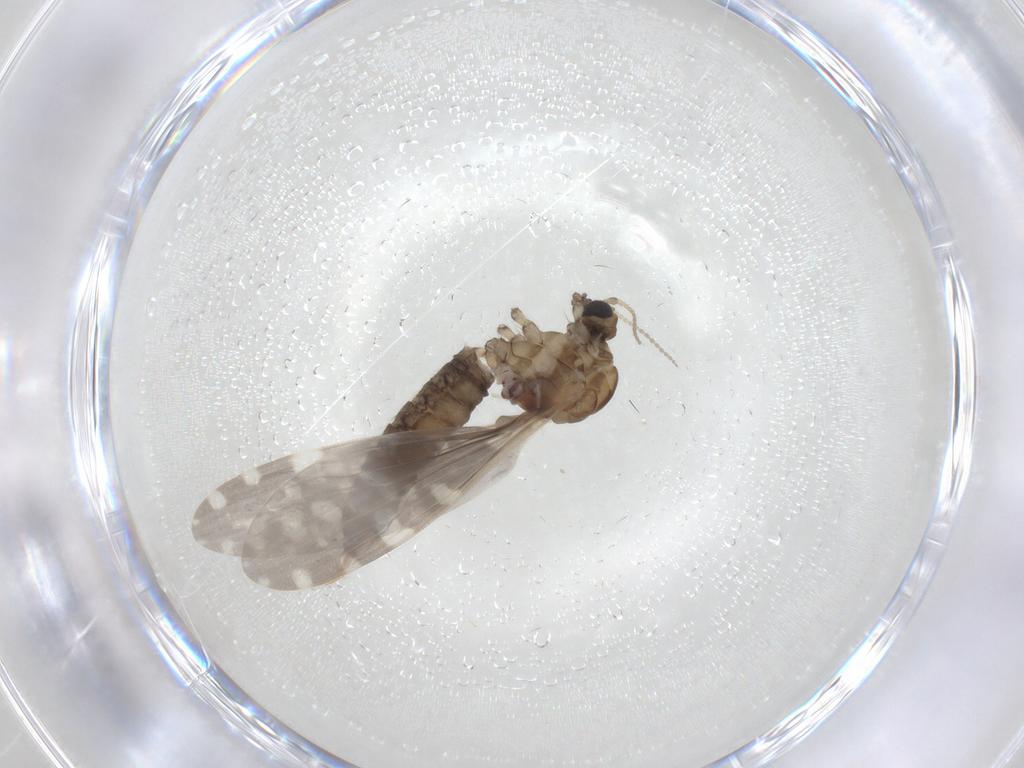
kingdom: Animalia
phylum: Arthropoda
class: Insecta
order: Diptera
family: Limoniidae
